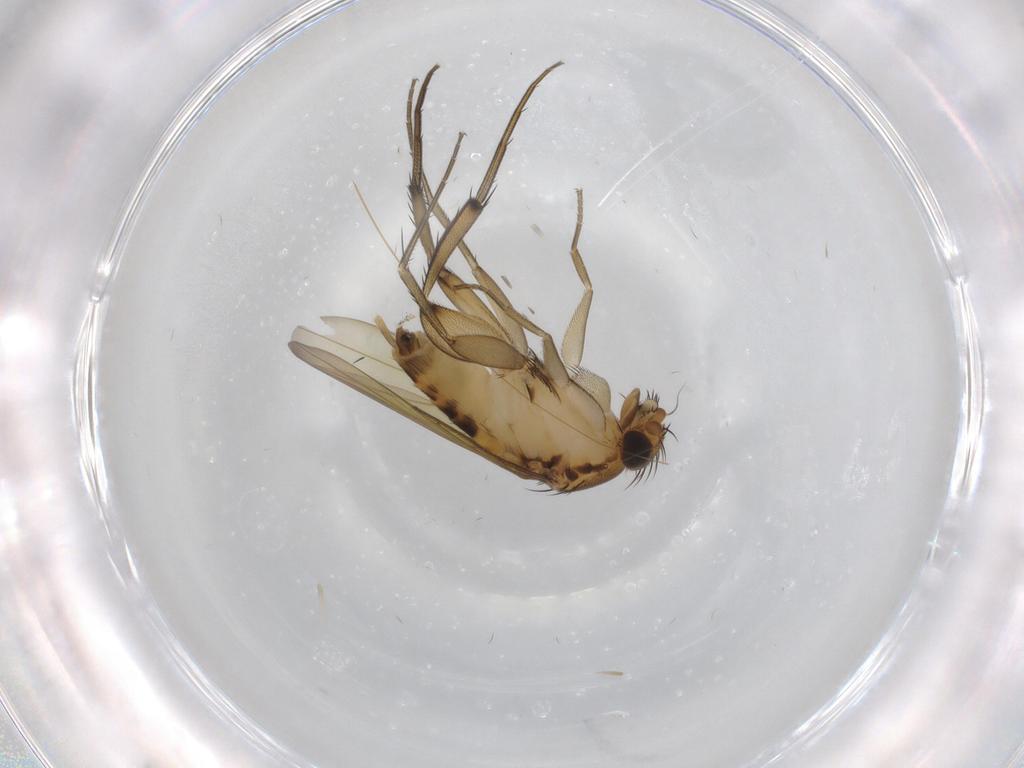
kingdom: Animalia
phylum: Arthropoda
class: Insecta
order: Diptera
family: Phoridae
